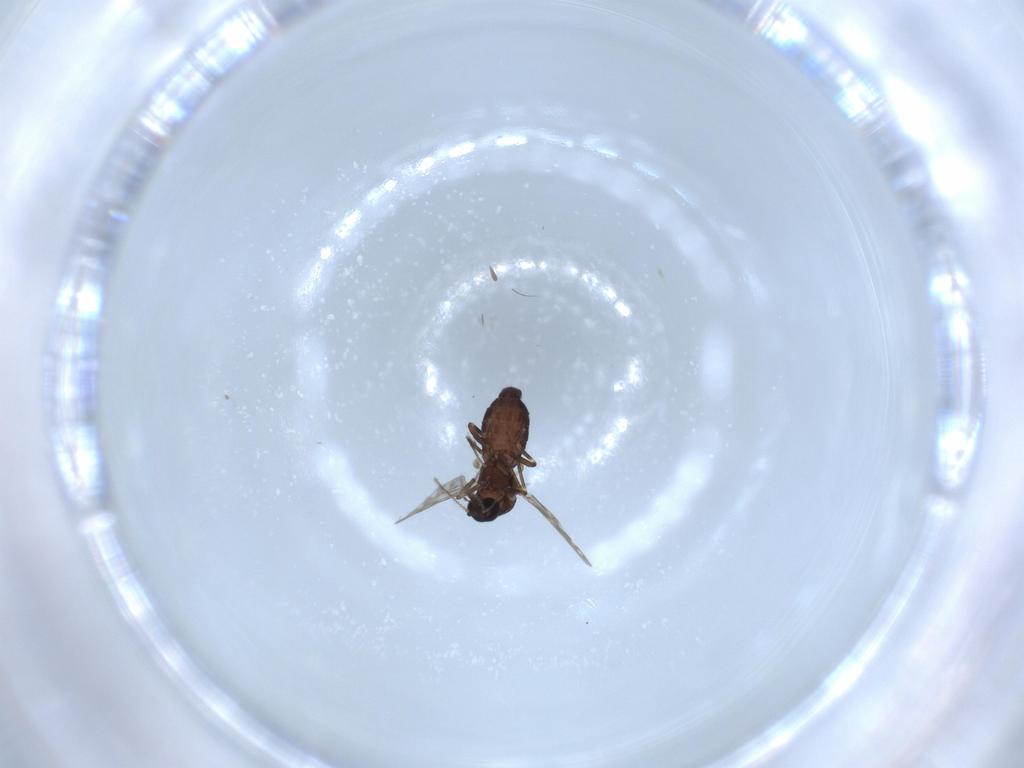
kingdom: Animalia
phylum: Arthropoda
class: Insecta
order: Diptera
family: Ceratopogonidae
